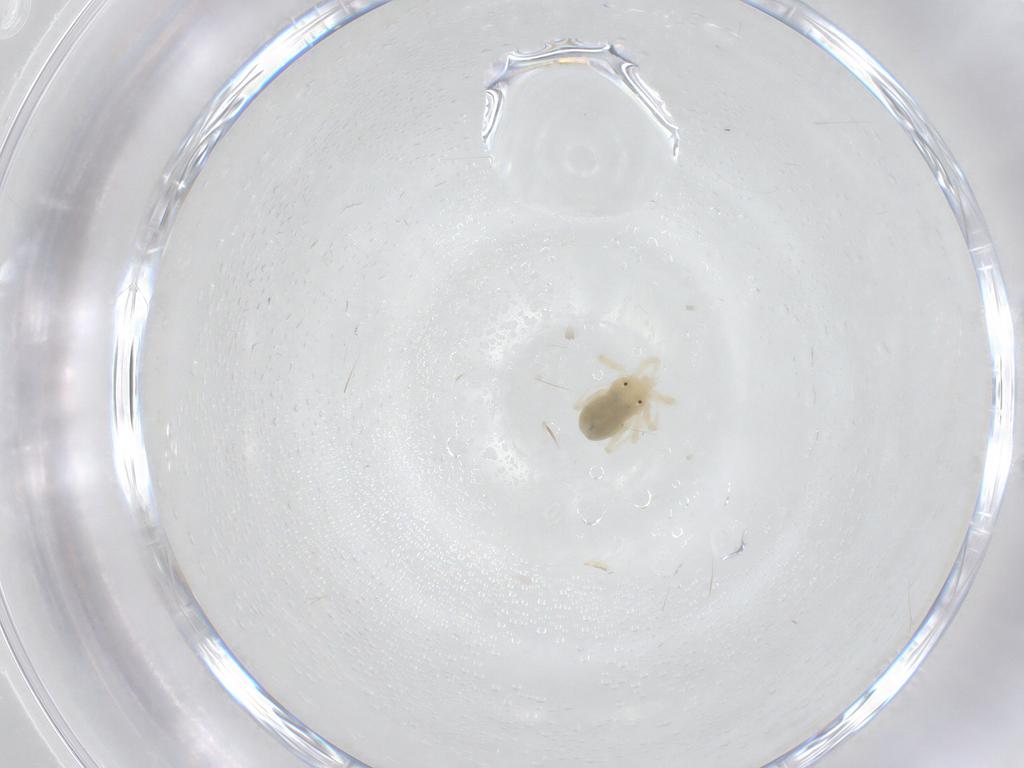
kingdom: Animalia
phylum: Arthropoda
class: Arachnida
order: Trombidiformes
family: Anystidae
